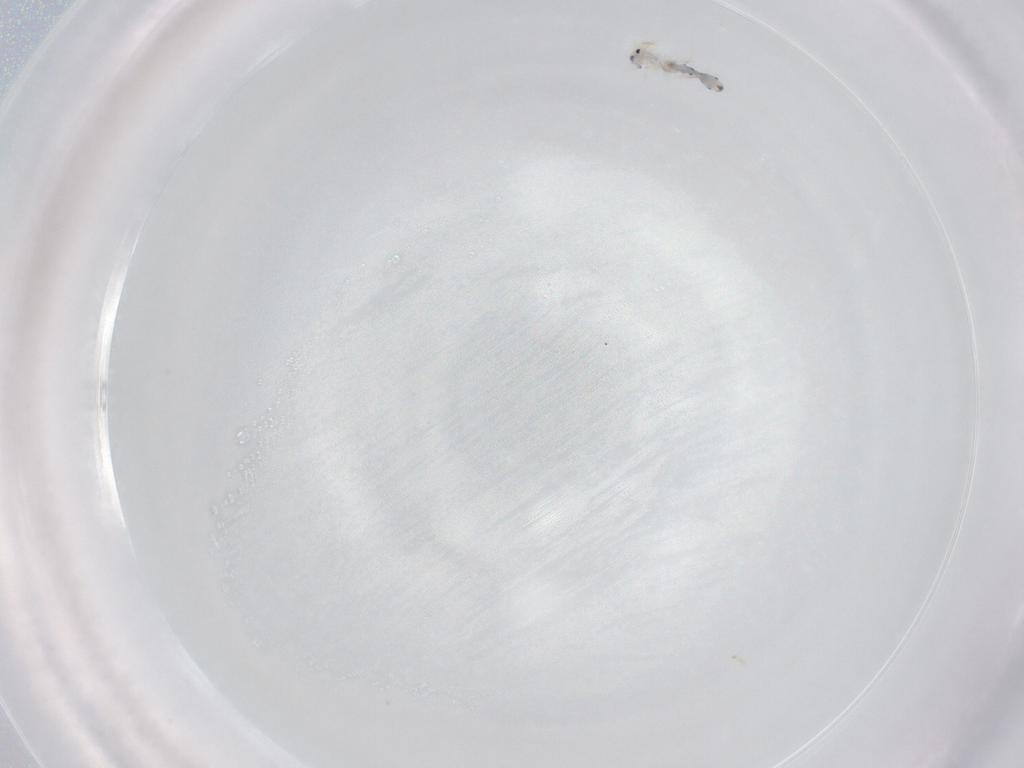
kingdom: Animalia
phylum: Arthropoda
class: Collembola
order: Entomobryomorpha
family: Entomobryidae
